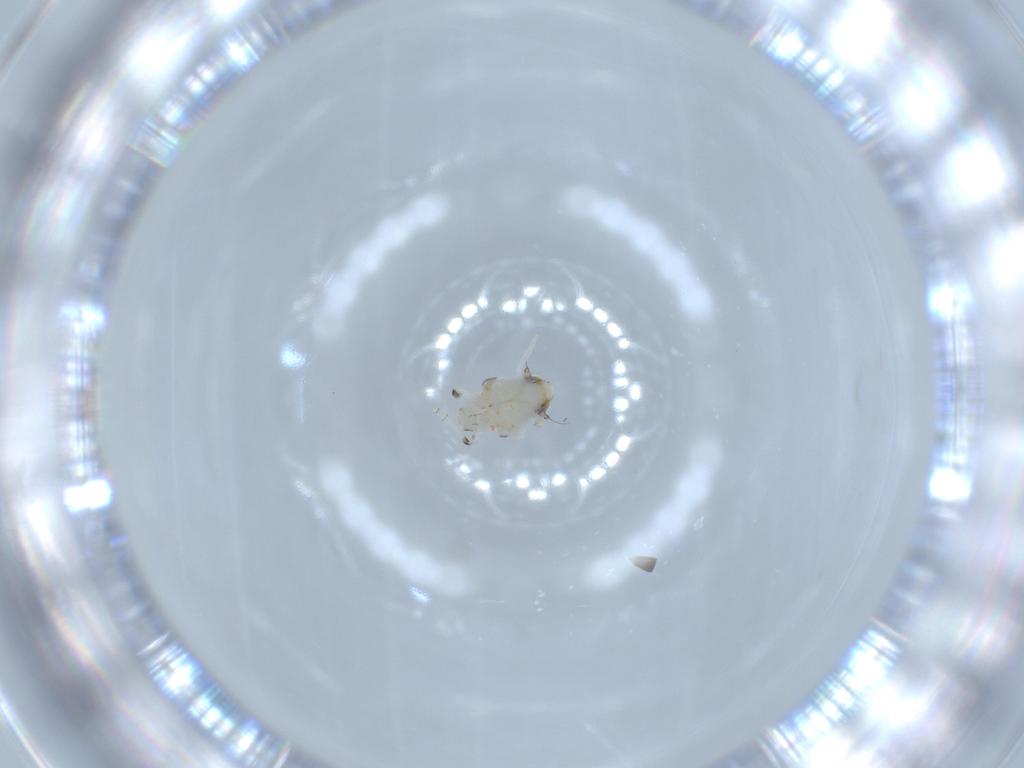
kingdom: Animalia
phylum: Arthropoda
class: Insecta
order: Hemiptera
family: Nogodinidae
